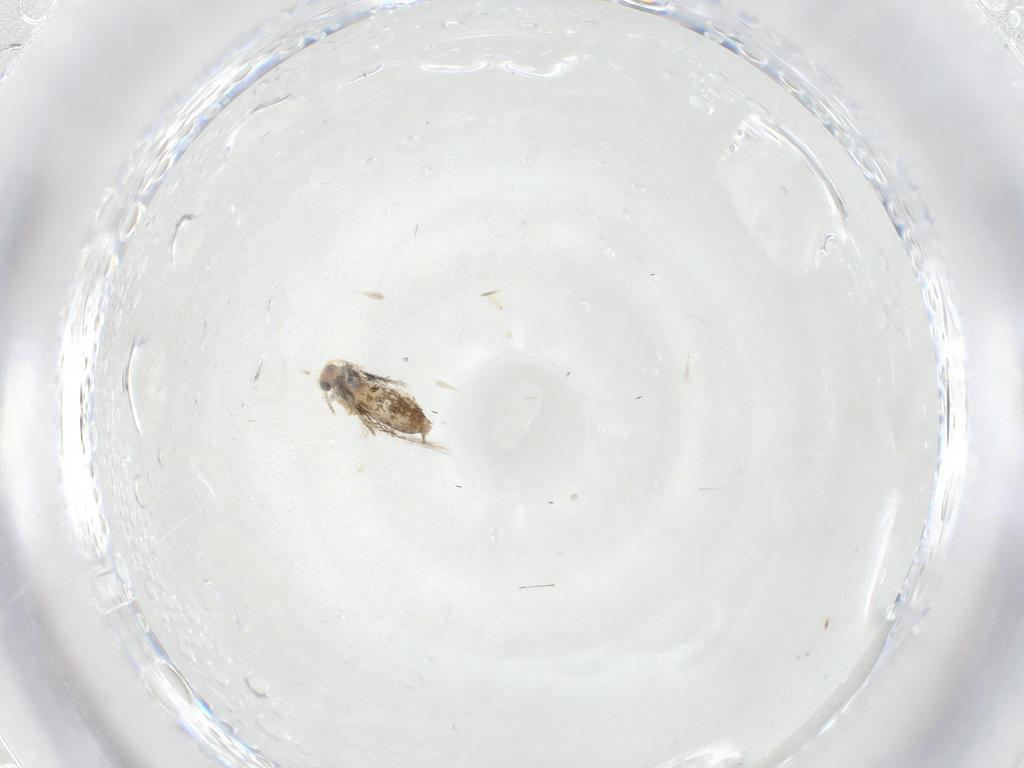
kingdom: Animalia
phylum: Arthropoda
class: Insecta
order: Lepidoptera
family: Nepticulidae
